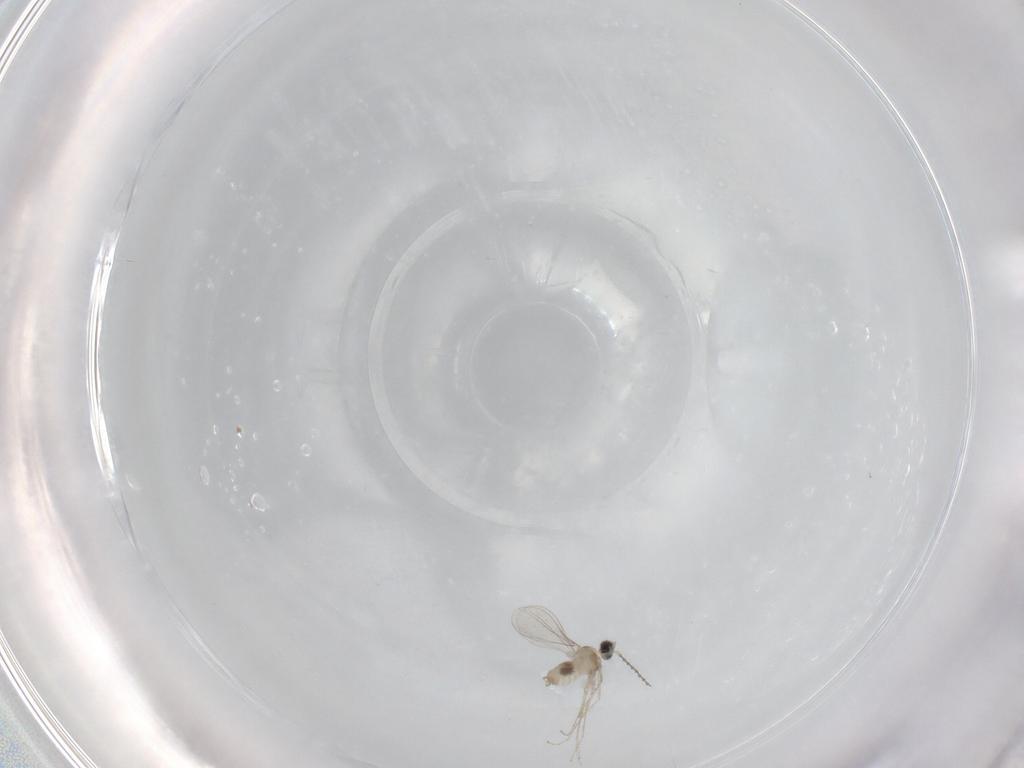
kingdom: Animalia
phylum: Arthropoda
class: Insecta
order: Diptera
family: Cecidomyiidae
